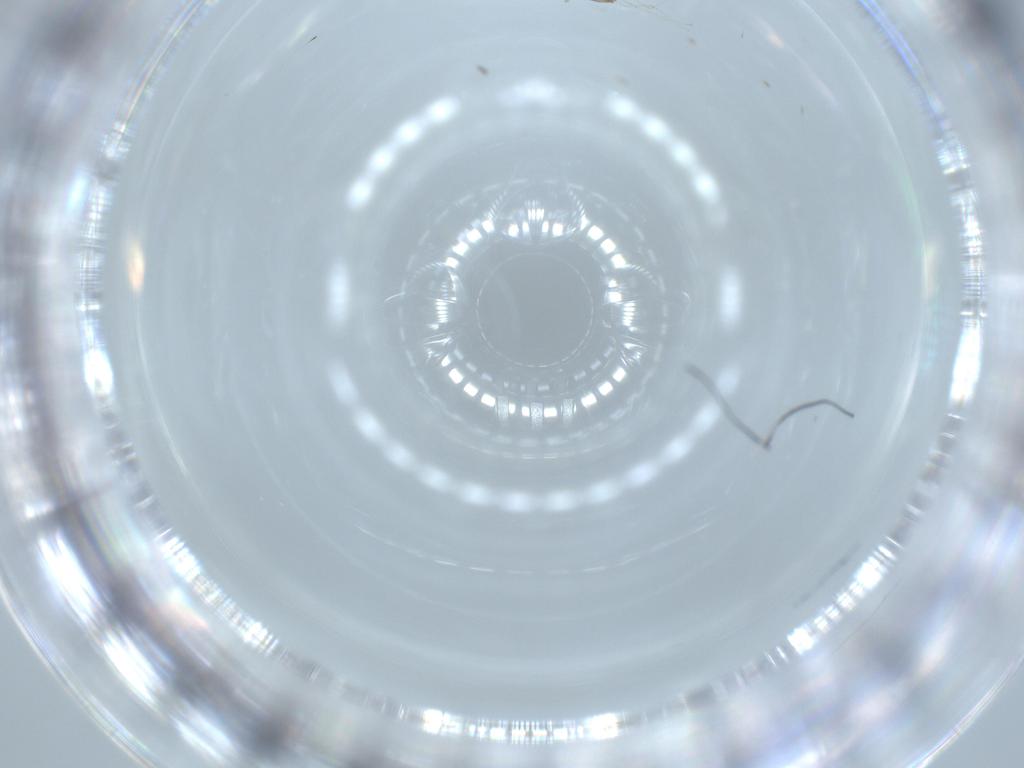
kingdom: Animalia
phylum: Arthropoda
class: Insecta
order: Diptera
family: Cecidomyiidae
